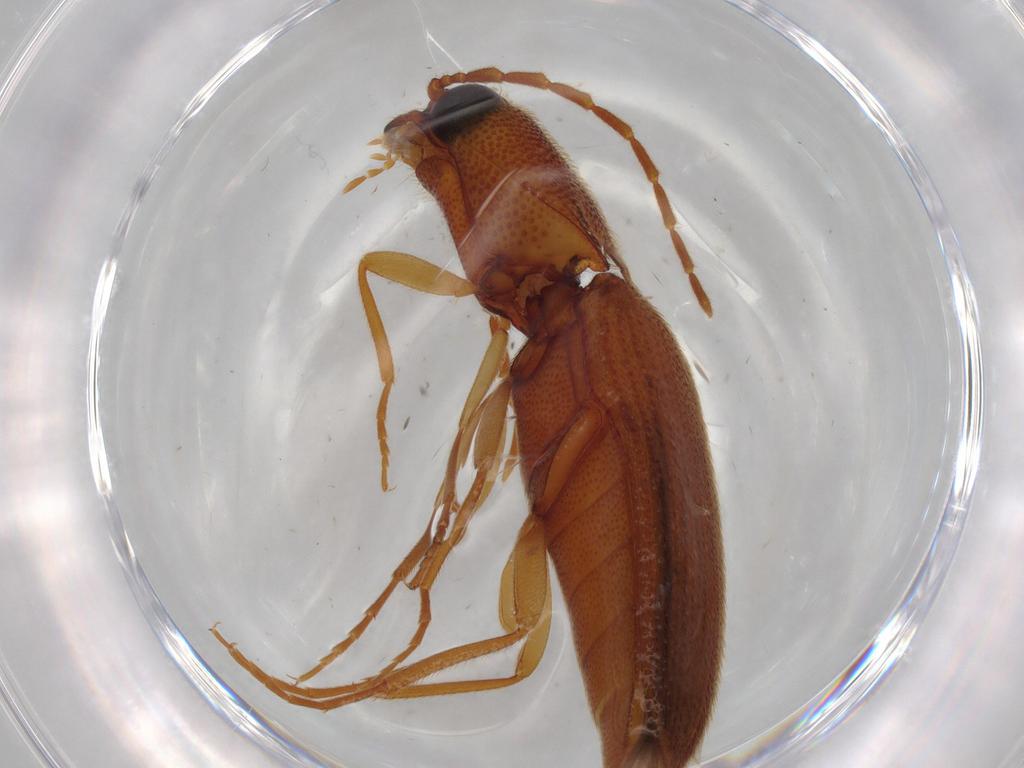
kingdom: Animalia
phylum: Arthropoda
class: Insecta
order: Coleoptera
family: Elateridae
